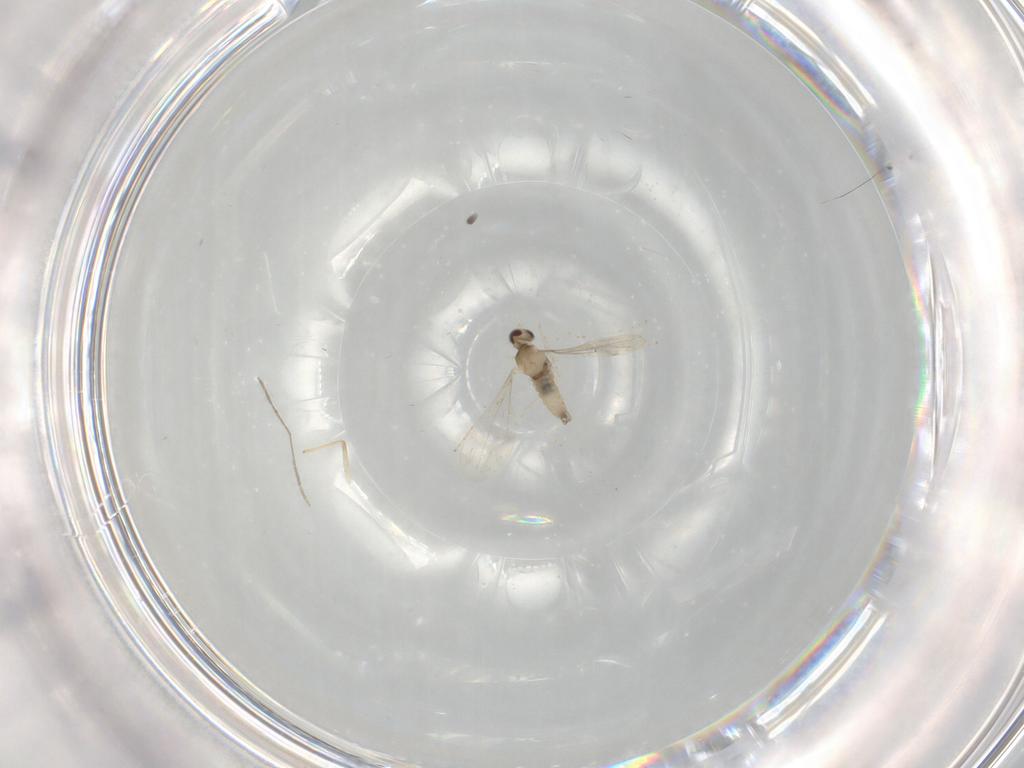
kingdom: Animalia
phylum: Arthropoda
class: Insecta
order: Diptera
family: Cecidomyiidae
